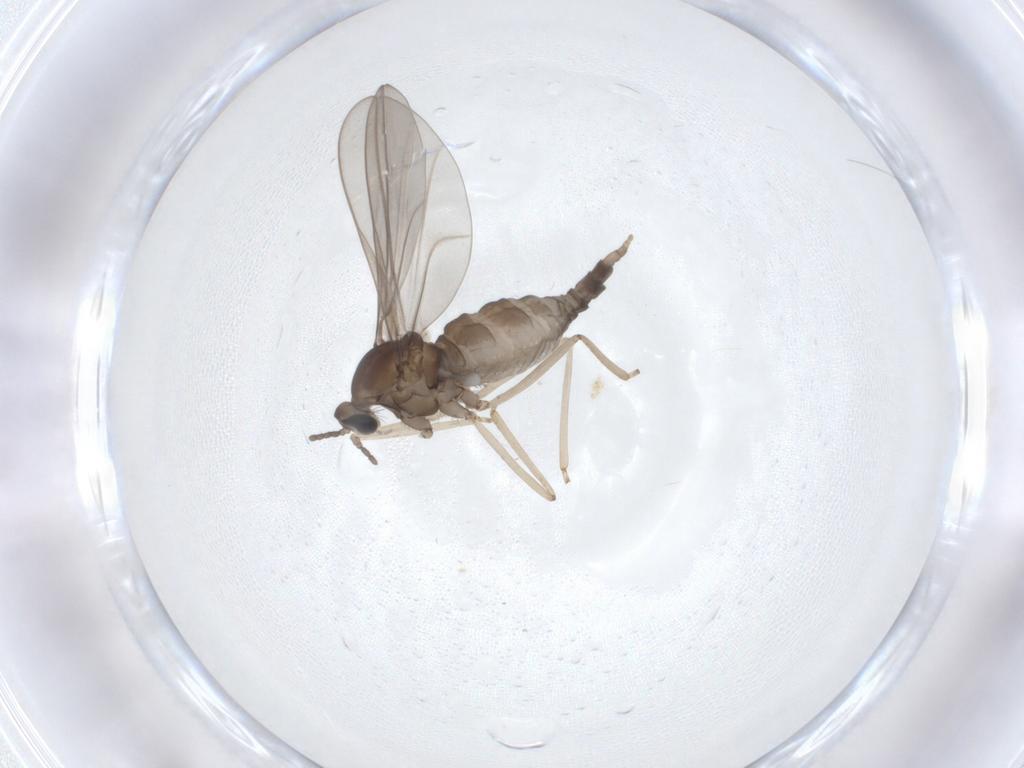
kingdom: Animalia
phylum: Arthropoda
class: Insecta
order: Diptera
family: Cecidomyiidae
